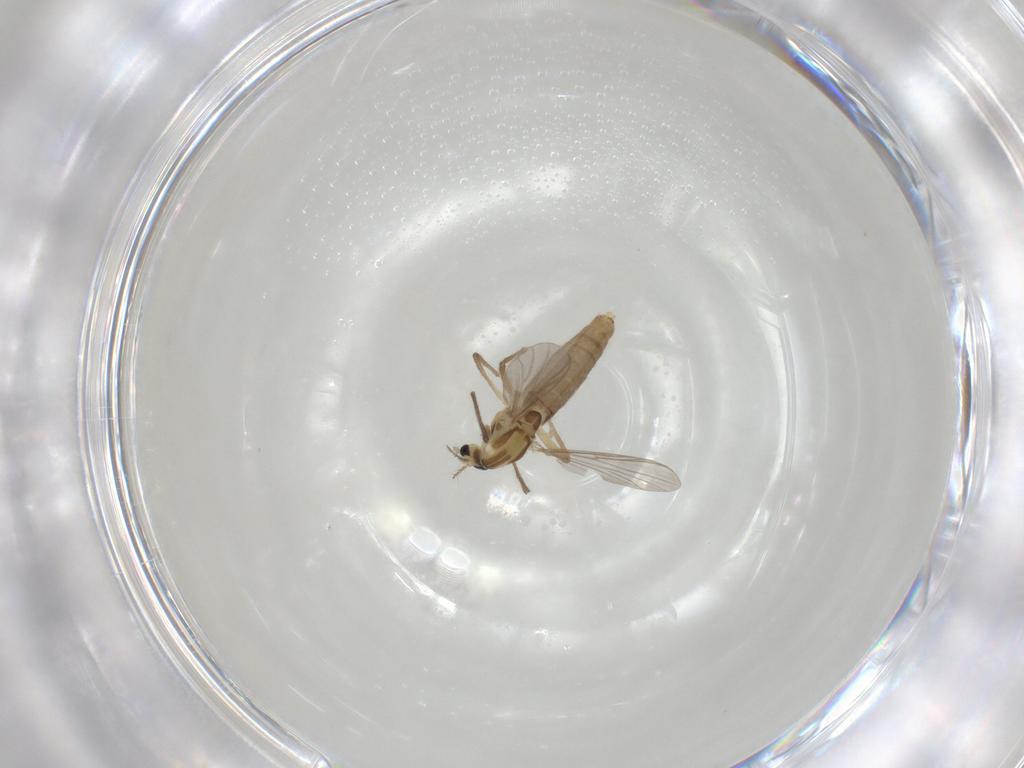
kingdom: Animalia
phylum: Arthropoda
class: Insecta
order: Diptera
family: Chironomidae
